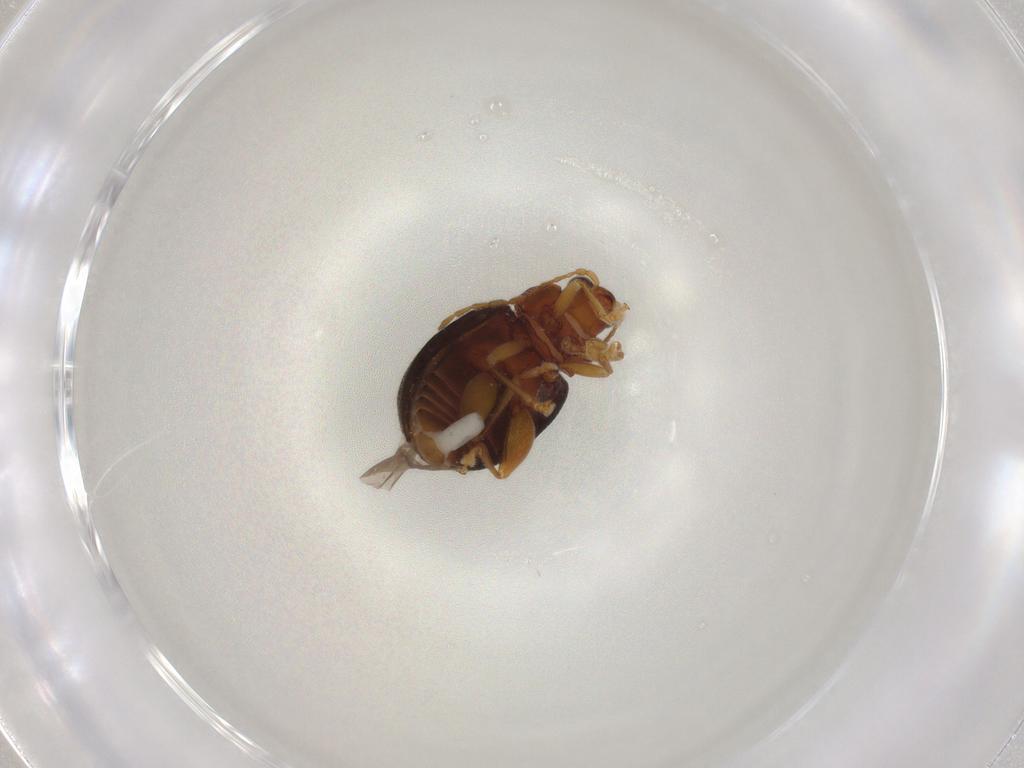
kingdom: Animalia
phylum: Arthropoda
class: Insecta
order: Coleoptera
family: Chrysomelidae
